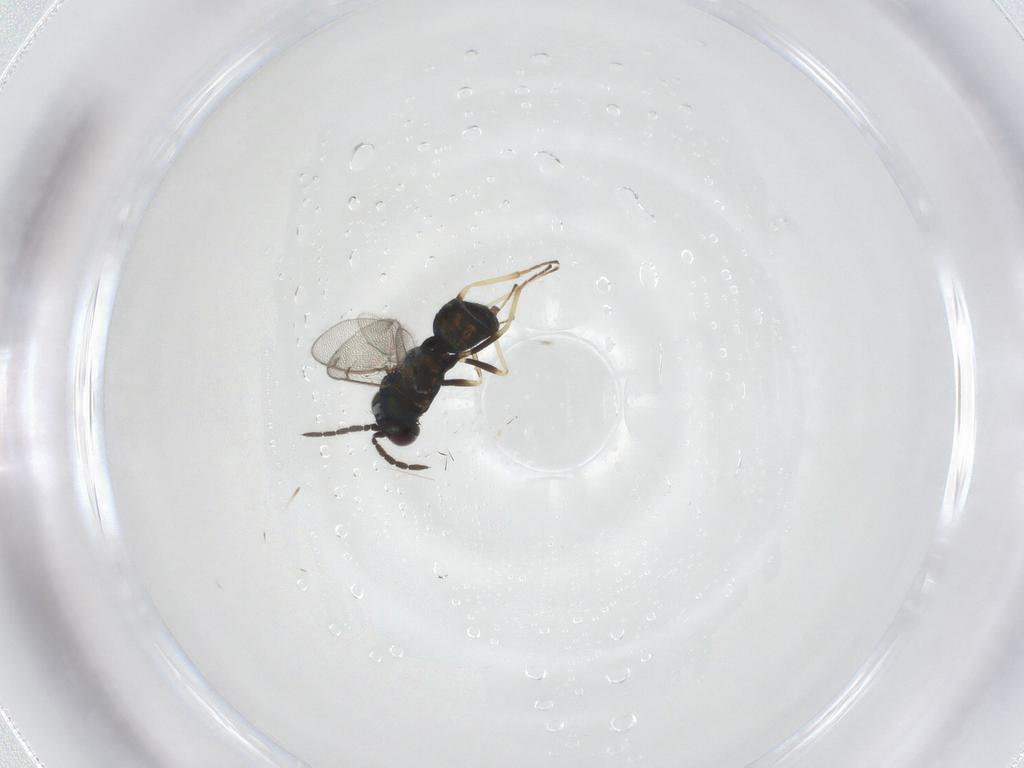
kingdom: Animalia
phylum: Arthropoda
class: Insecta
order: Hymenoptera
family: Eulophidae
